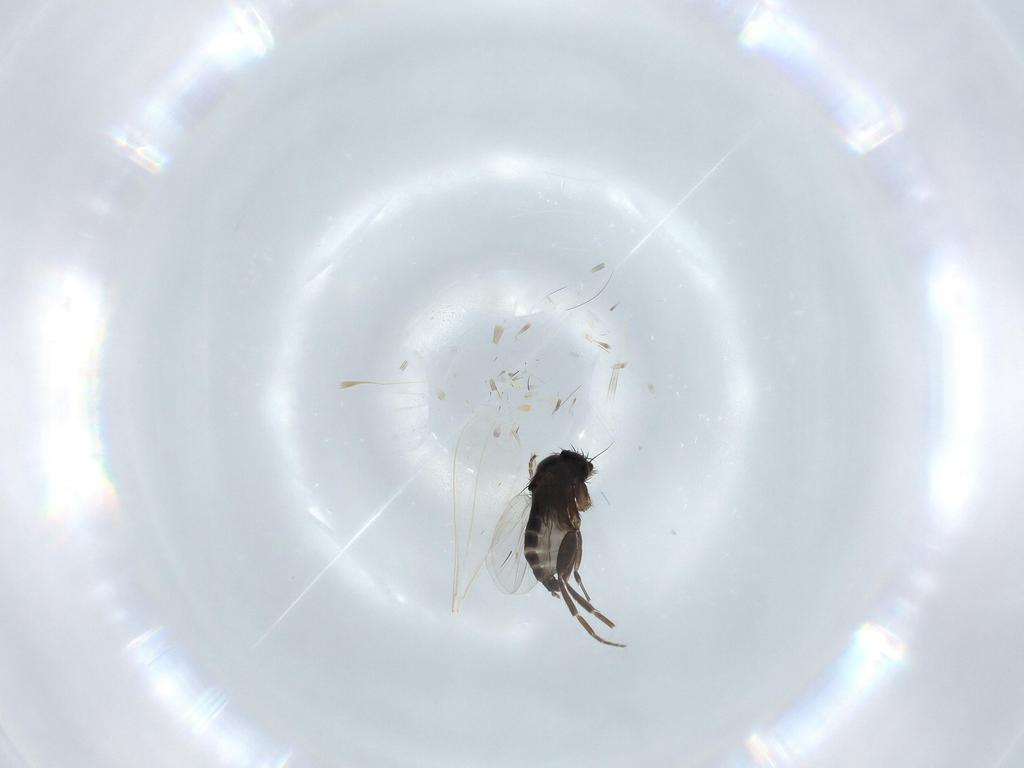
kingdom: Animalia
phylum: Arthropoda
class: Insecta
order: Diptera
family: Phoridae
